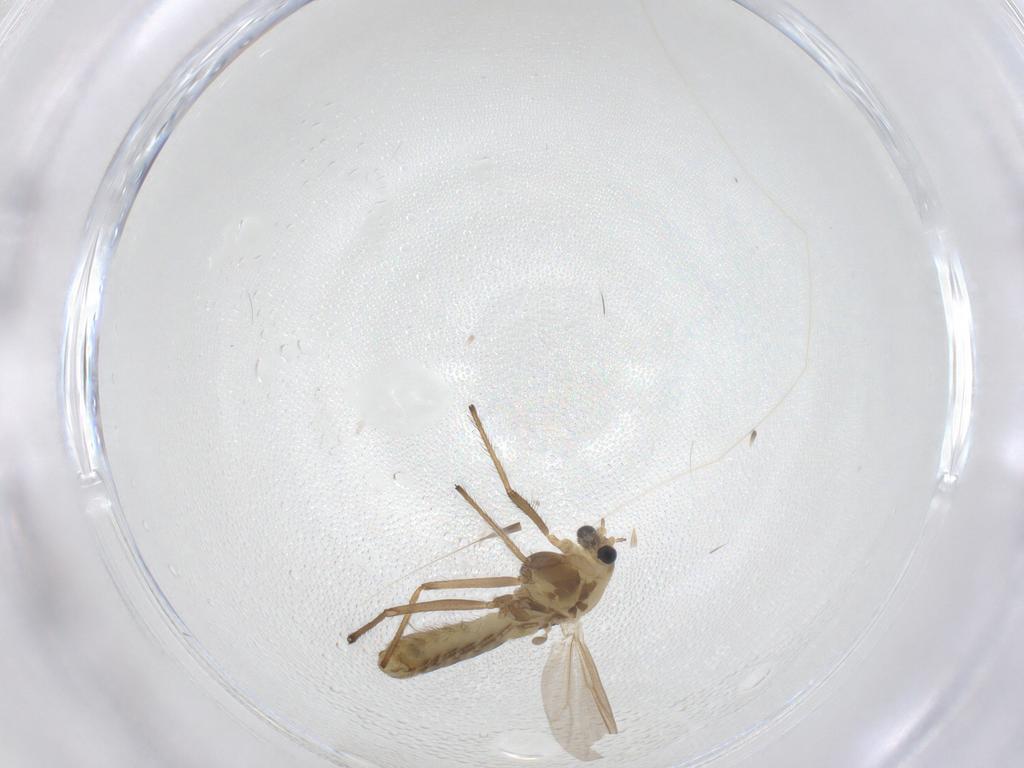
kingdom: Animalia
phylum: Arthropoda
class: Insecta
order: Diptera
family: Chironomidae
